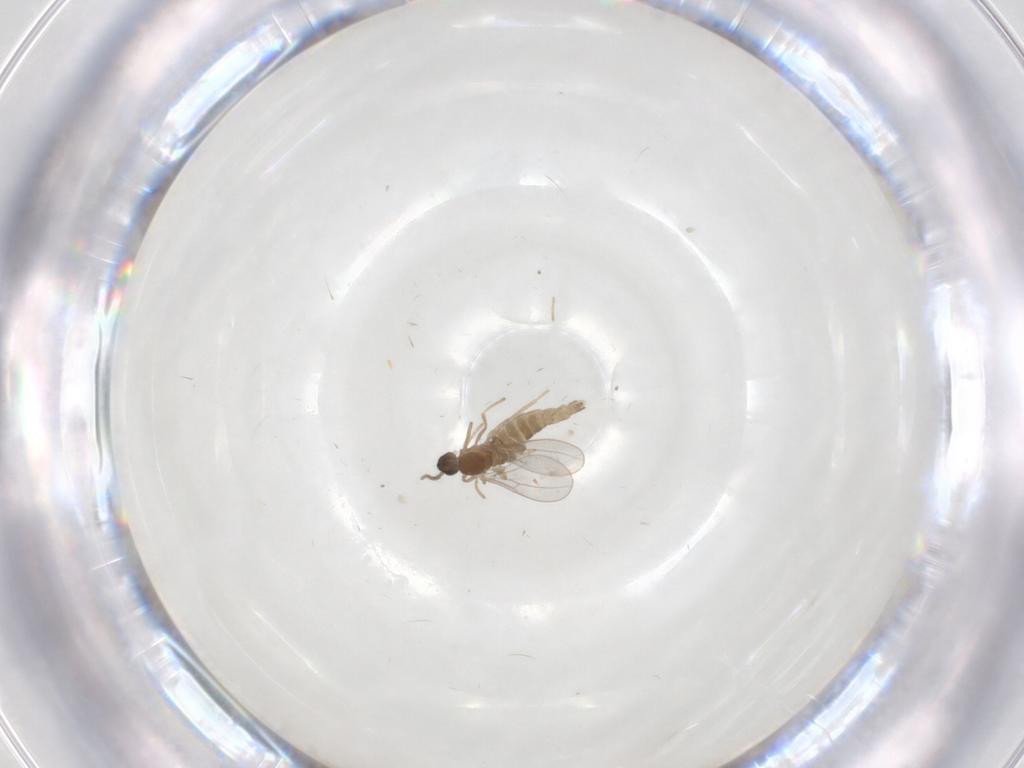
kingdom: Animalia
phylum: Arthropoda
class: Insecta
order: Diptera
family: Cecidomyiidae
